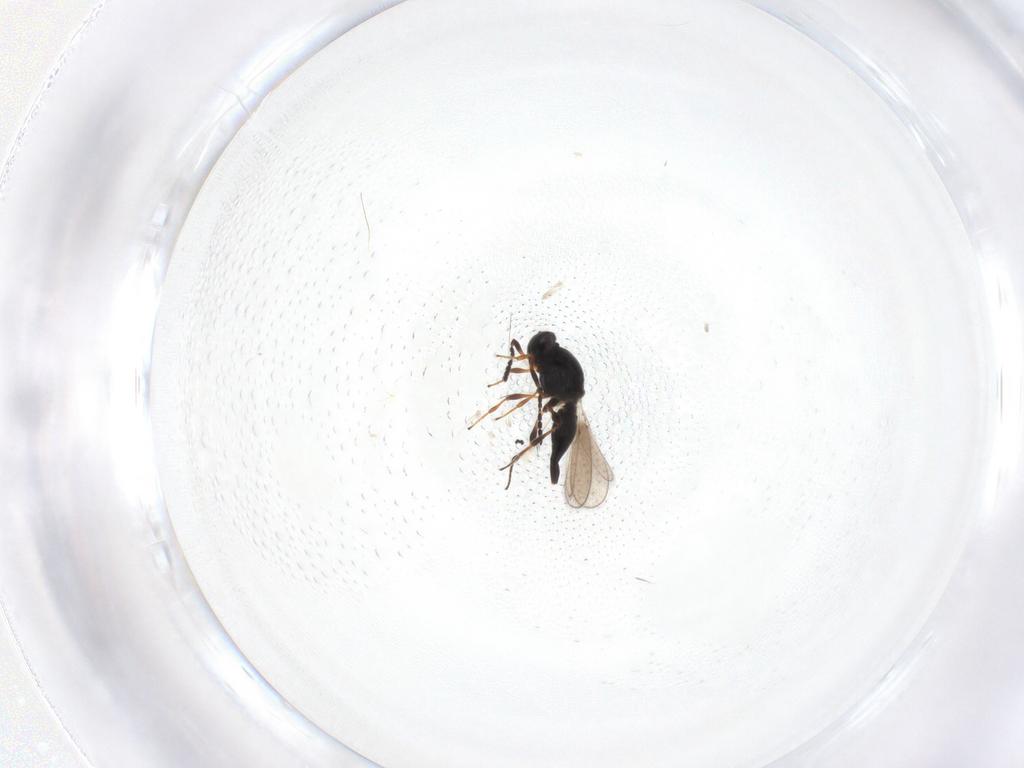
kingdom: Animalia
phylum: Arthropoda
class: Insecta
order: Hymenoptera
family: Platygastridae
